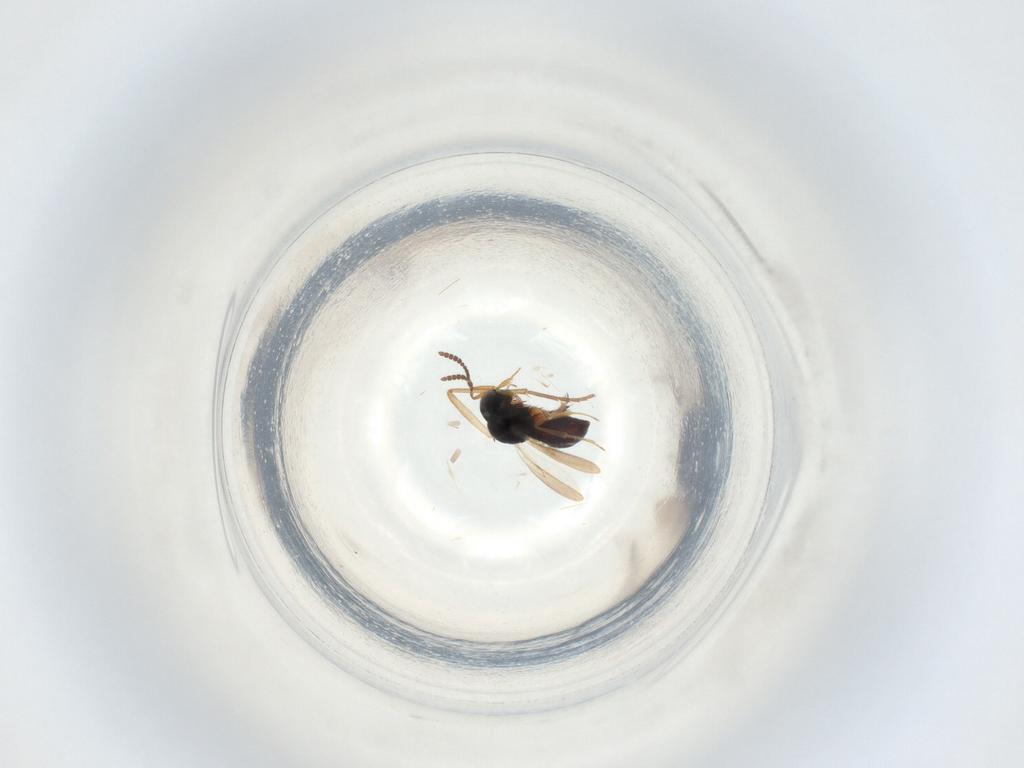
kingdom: Animalia
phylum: Arthropoda
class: Insecta
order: Hymenoptera
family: Scelionidae
